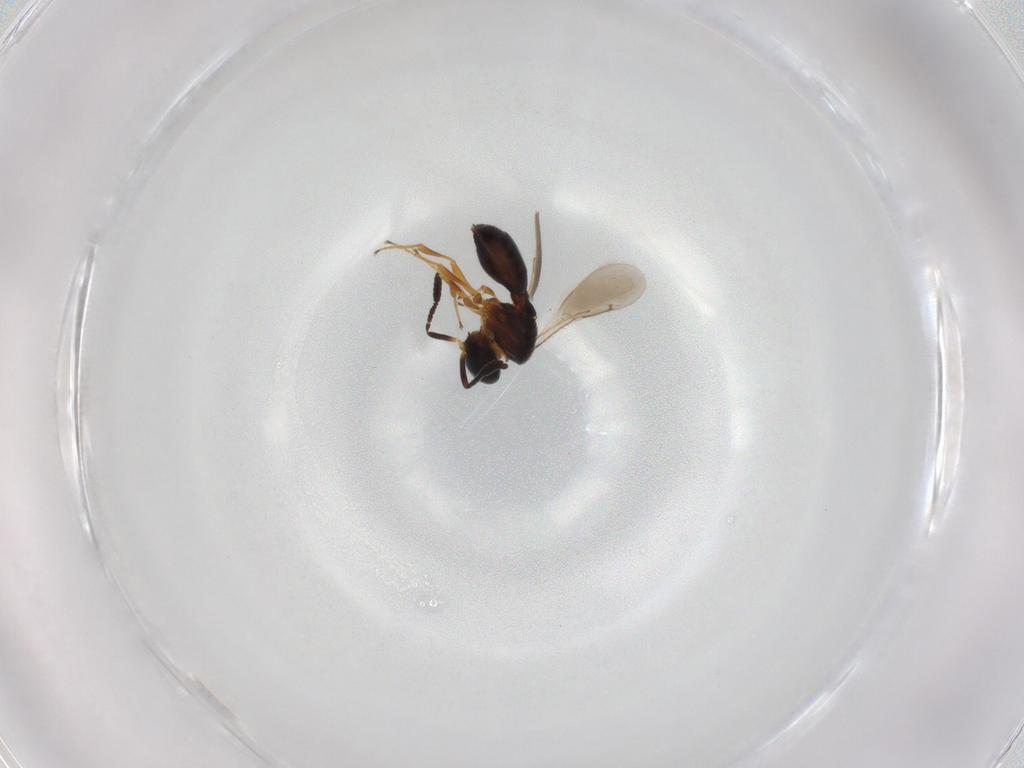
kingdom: Animalia
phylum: Arthropoda
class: Insecta
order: Hymenoptera
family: Scelionidae
